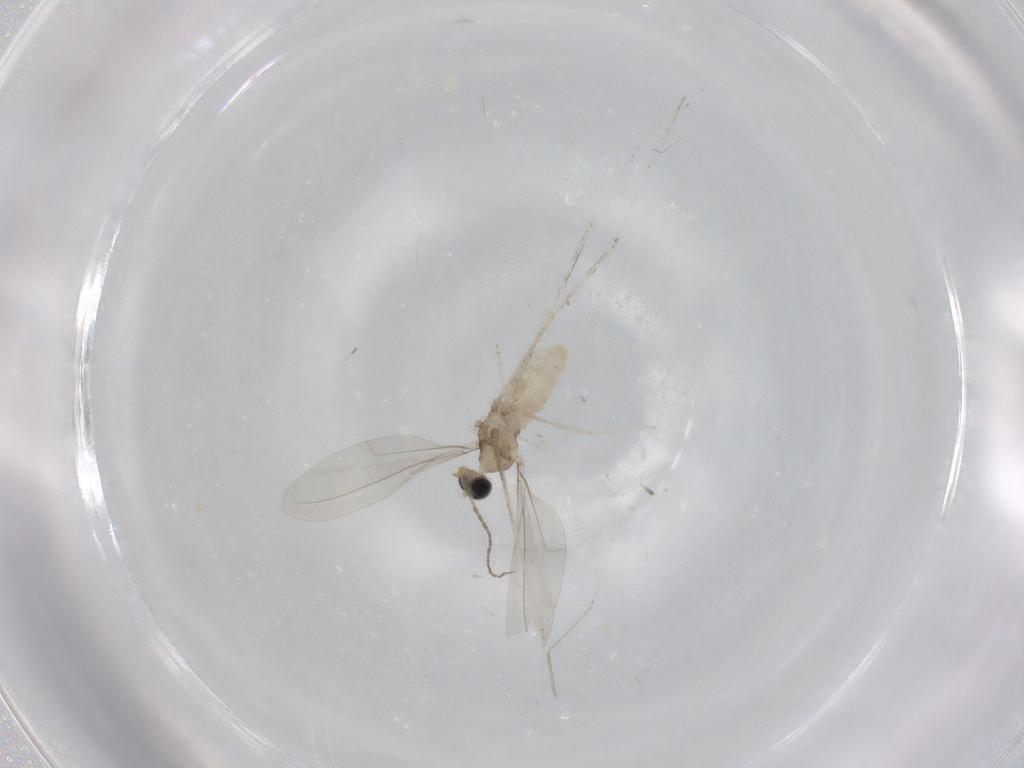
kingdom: Animalia
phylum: Arthropoda
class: Insecta
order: Diptera
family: Cecidomyiidae
